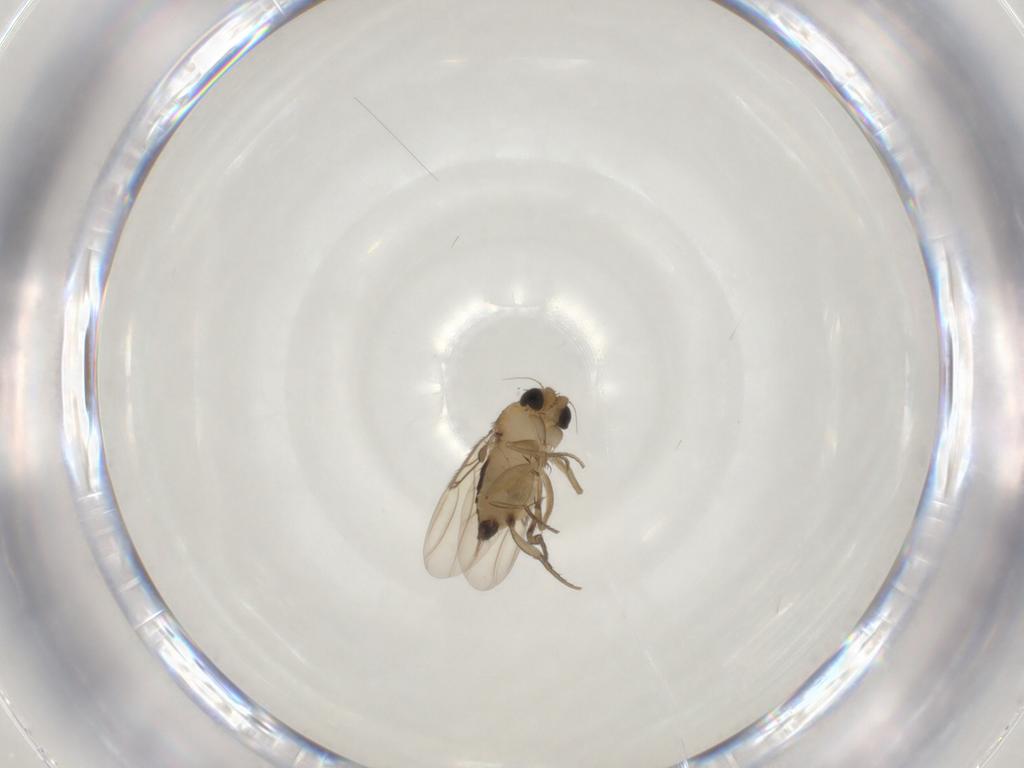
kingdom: Animalia
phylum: Arthropoda
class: Insecta
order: Diptera
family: Phoridae
